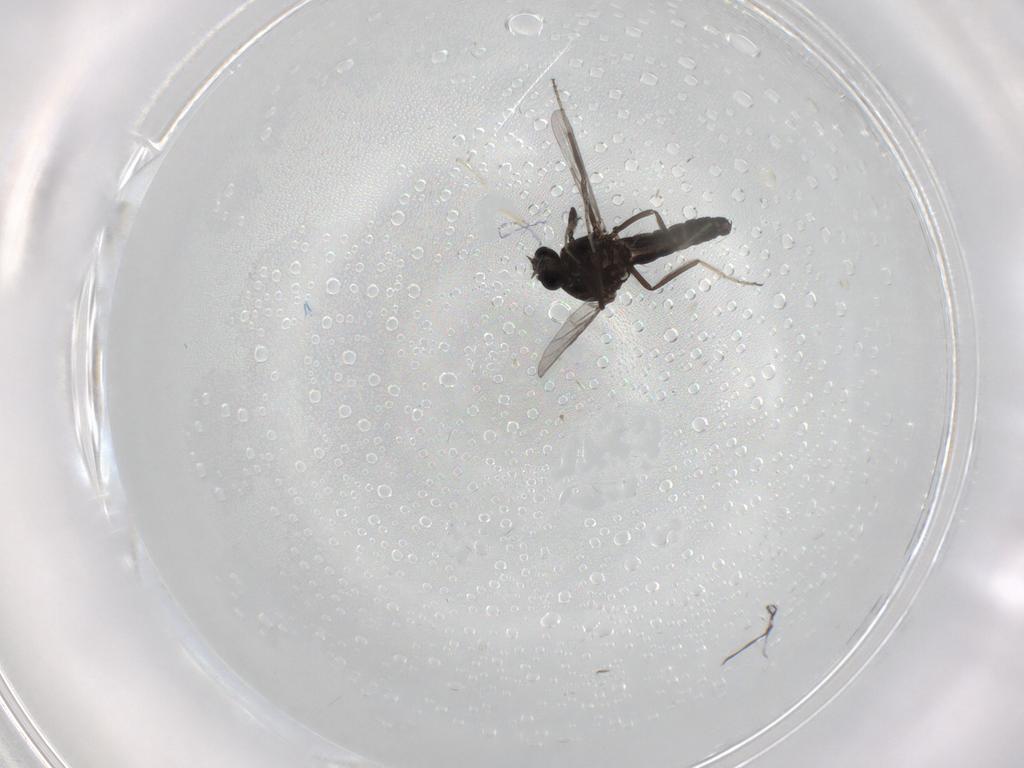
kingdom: Animalia
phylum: Arthropoda
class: Insecta
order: Diptera
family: Ceratopogonidae
